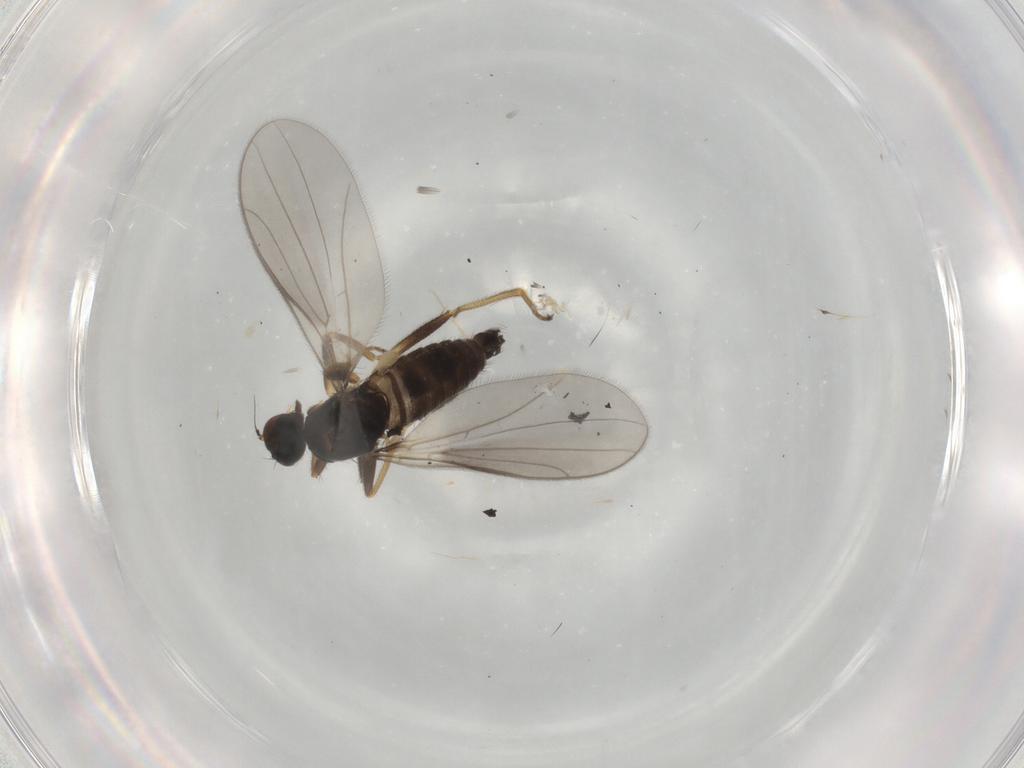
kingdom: Animalia
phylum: Arthropoda
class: Insecta
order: Diptera
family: Hybotidae
